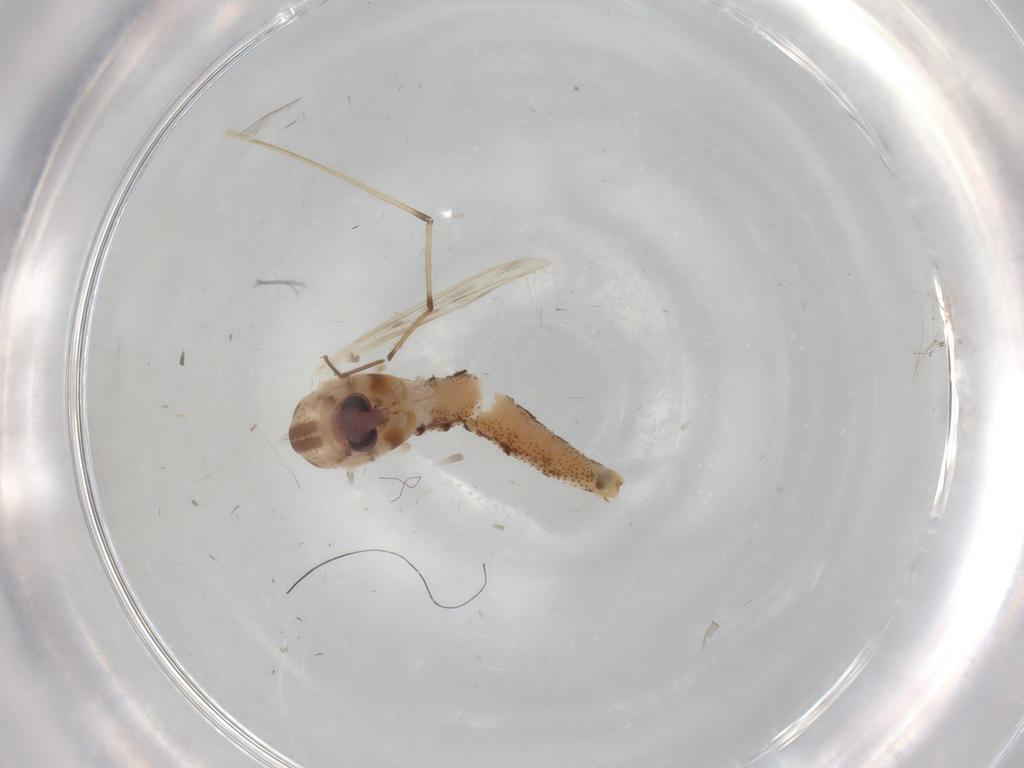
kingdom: Animalia
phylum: Arthropoda
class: Insecta
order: Diptera
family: Chaoboridae
